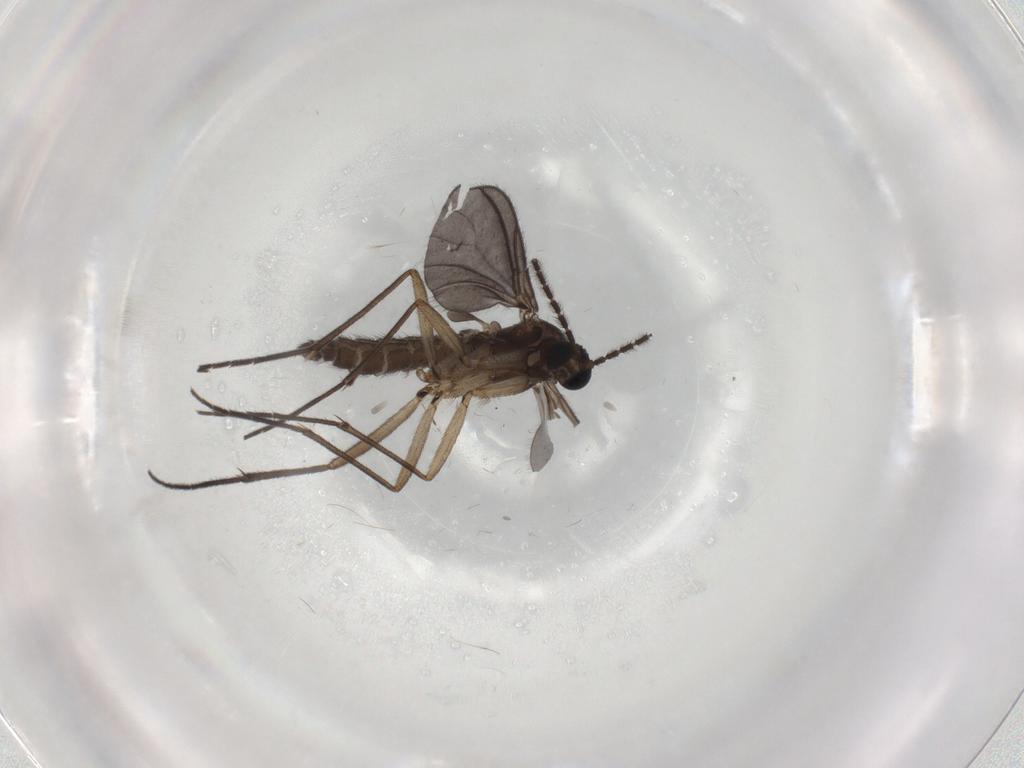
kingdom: Animalia
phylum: Arthropoda
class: Insecta
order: Diptera
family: Sciaridae
